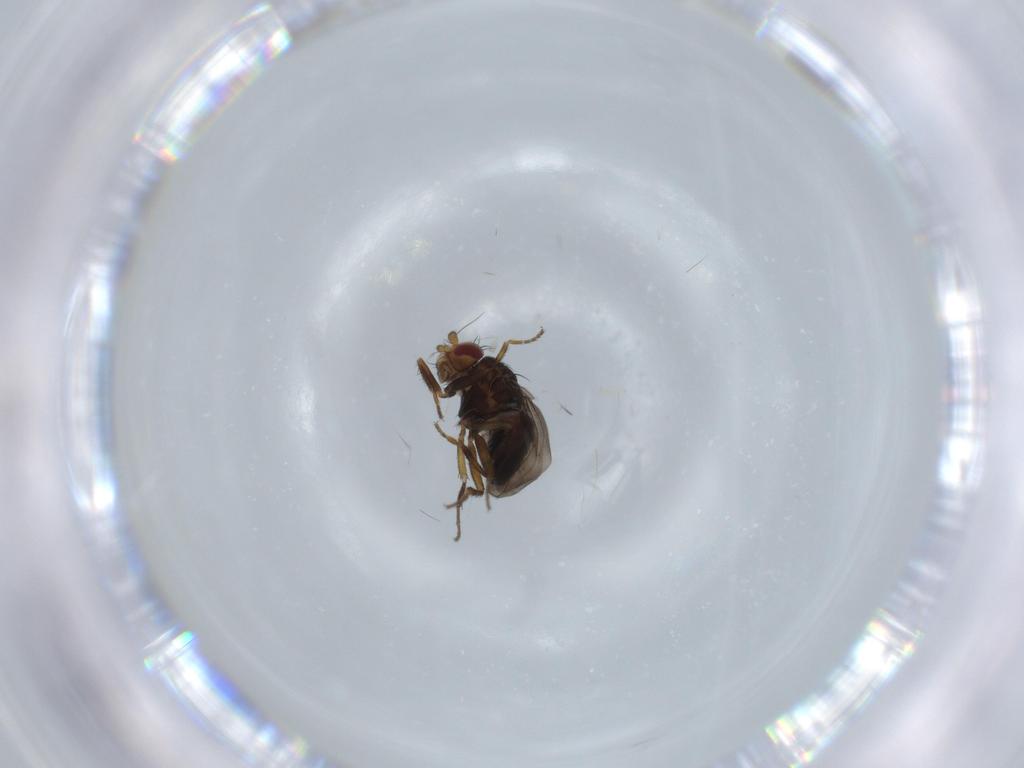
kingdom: Animalia
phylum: Arthropoda
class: Insecta
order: Diptera
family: Sphaeroceridae
